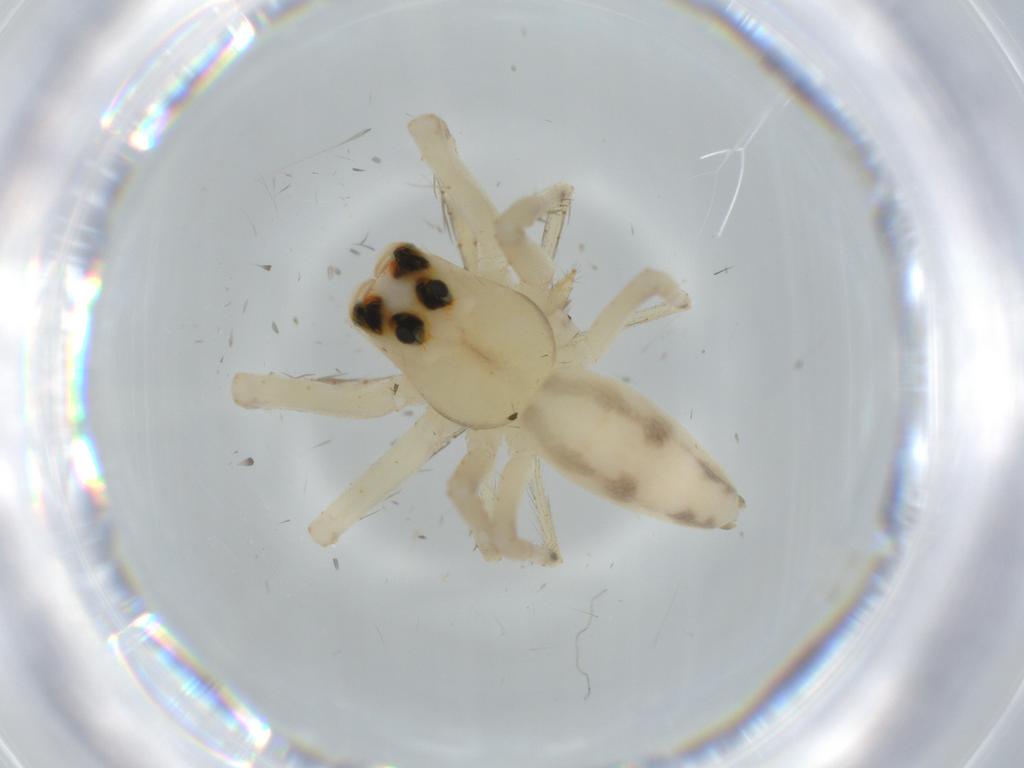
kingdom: Animalia
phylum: Arthropoda
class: Arachnida
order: Araneae
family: Salticidae
